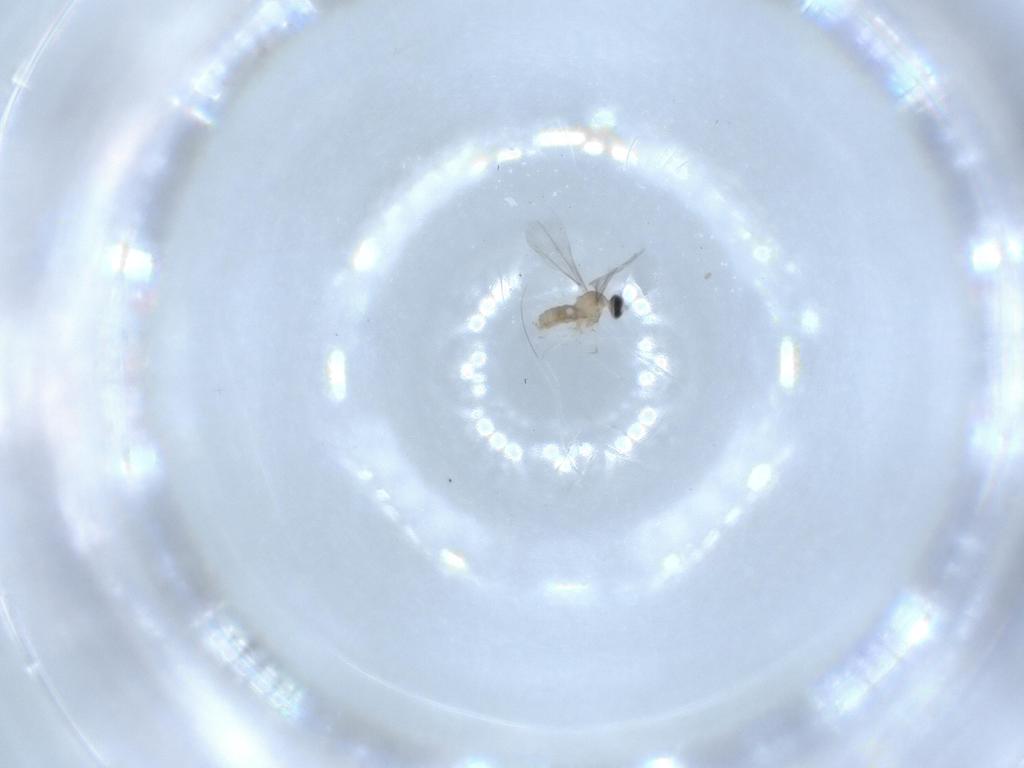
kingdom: Animalia
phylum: Arthropoda
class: Insecta
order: Diptera
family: Cecidomyiidae
